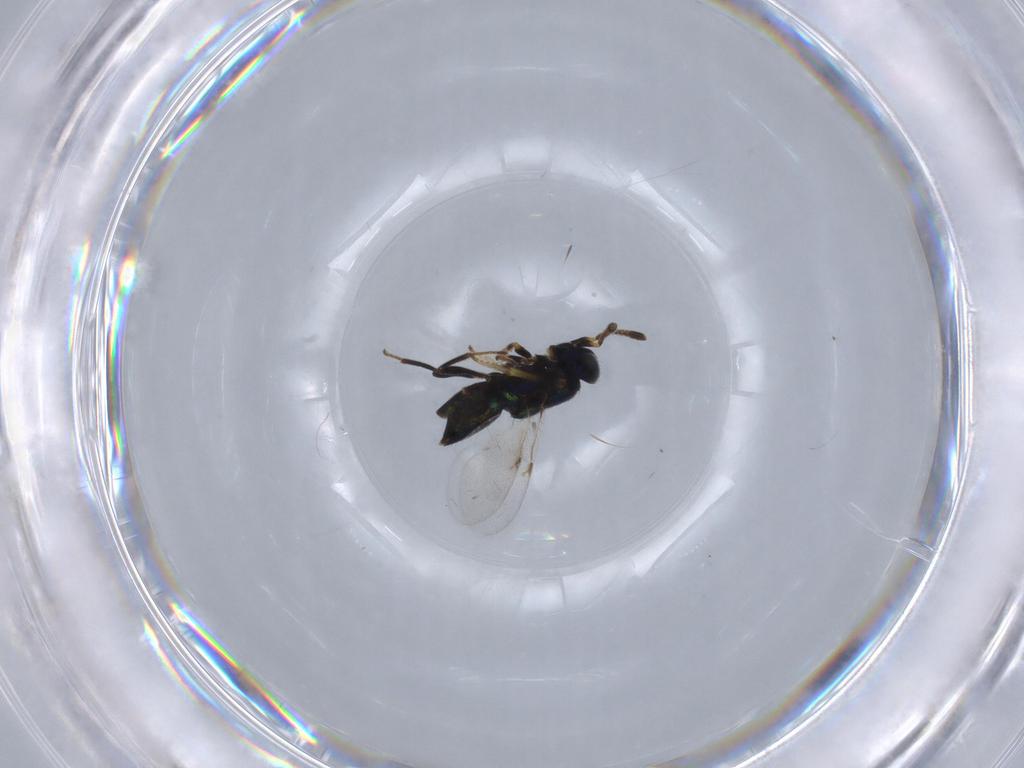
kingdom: Animalia
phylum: Arthropoda
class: Insecta
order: Hymenoptera
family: Encyrtidae
